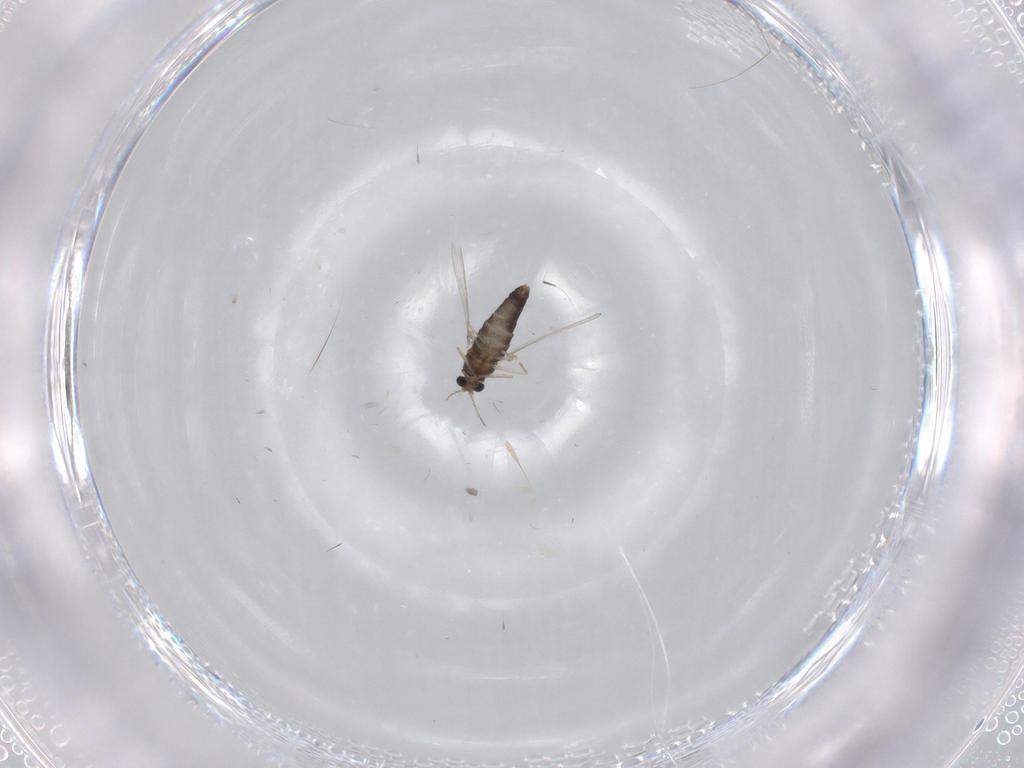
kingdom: Animalia
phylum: Arthropoda
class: Insecta
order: Diptera
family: Chironomidae
